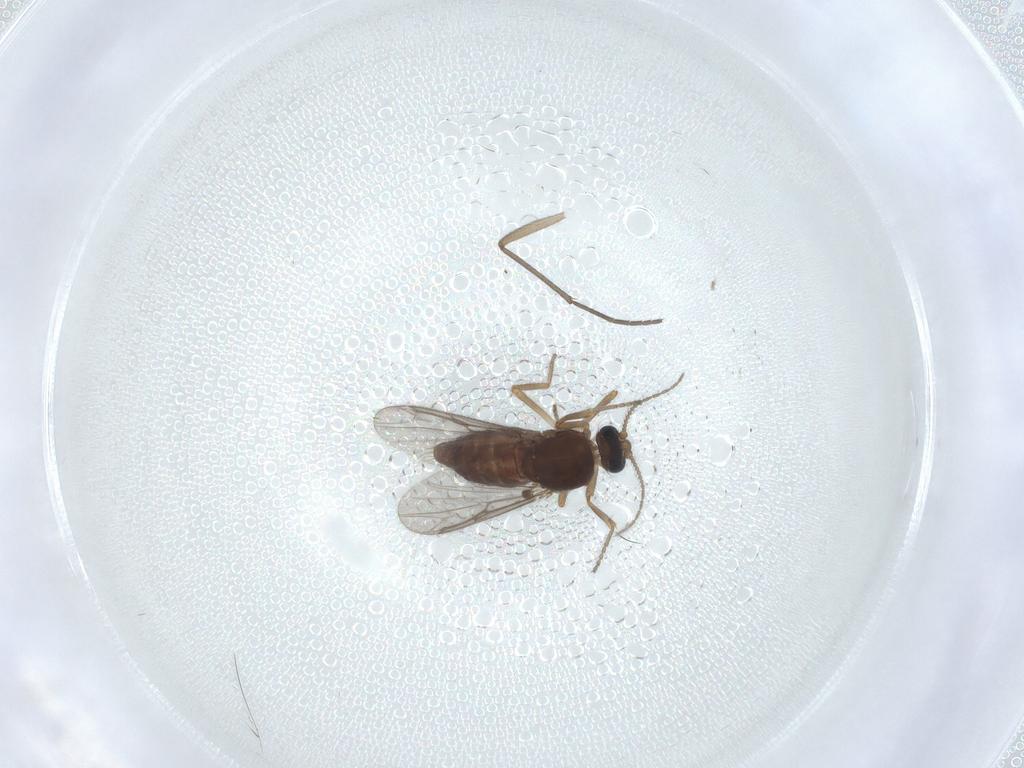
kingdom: Animalia
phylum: Arthropoda
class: Insecta
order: Diptera
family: Ceratopogonidae
